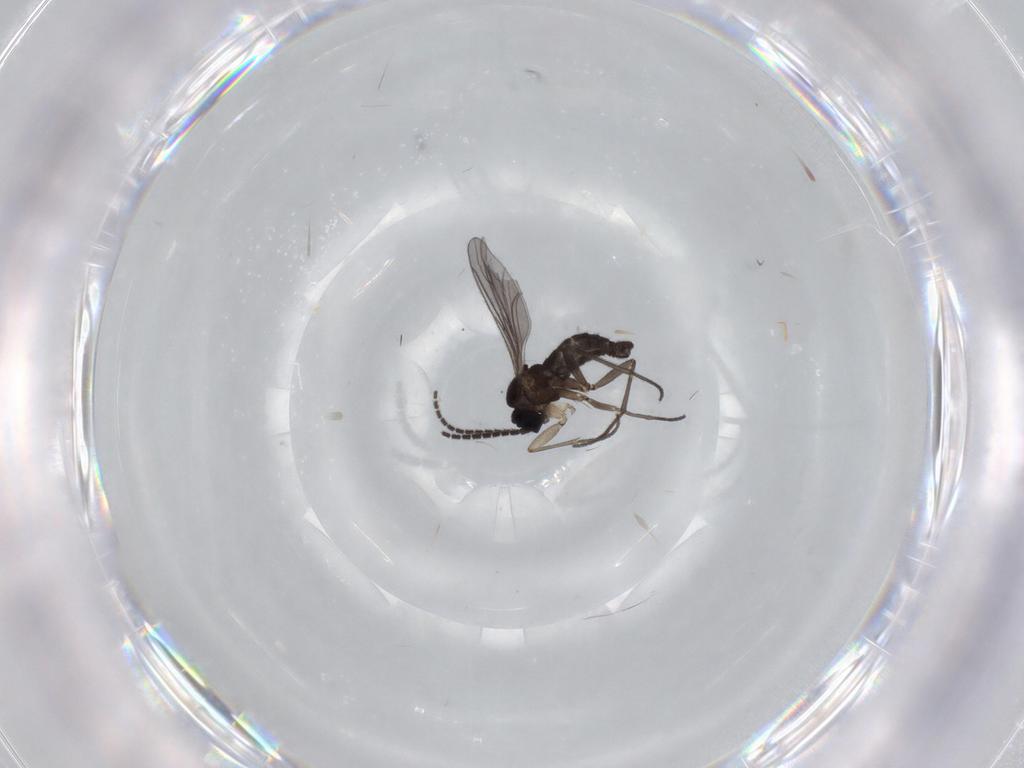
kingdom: Animalia
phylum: Arthropoda
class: Insecta
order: Diptera
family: Sciaridae
